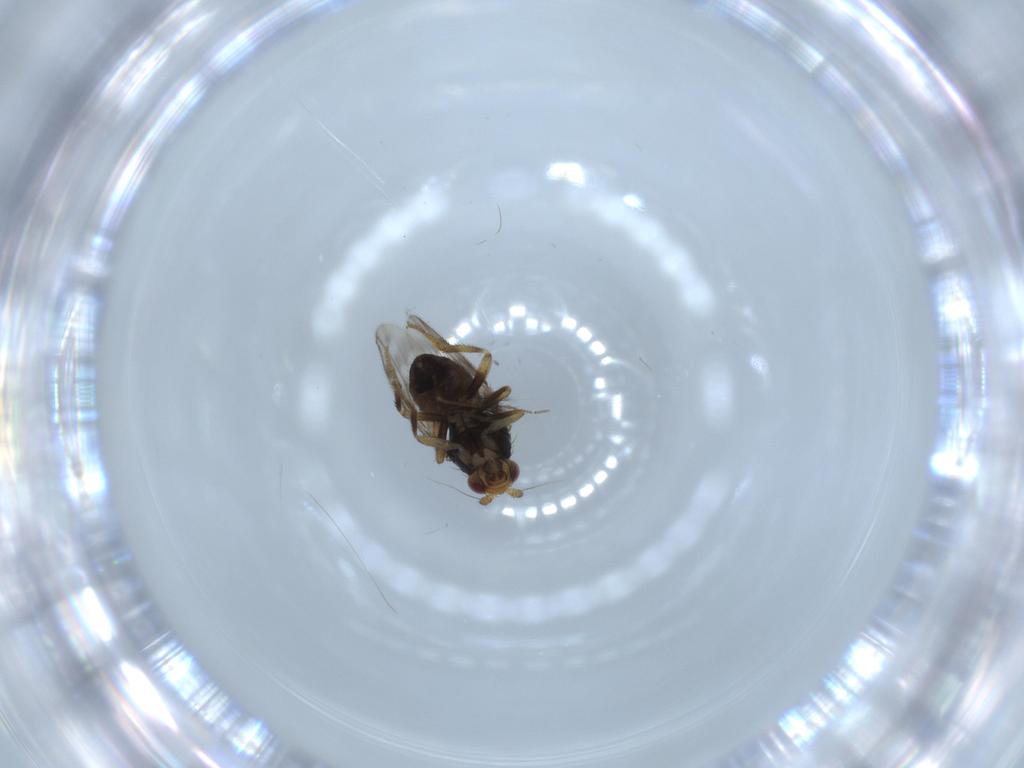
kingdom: Animalia
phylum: Arthropoda
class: Insecta
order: Diptera
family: Sphaeroceridae
